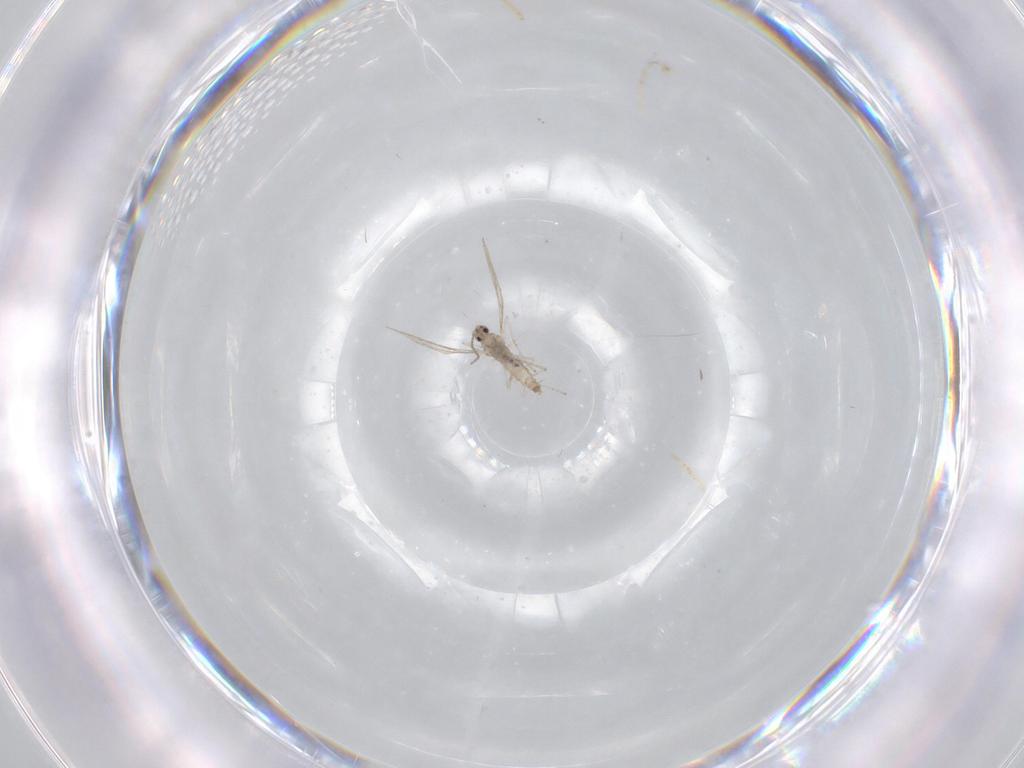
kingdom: Animalia
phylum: Arthropoda
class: Insecta
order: Diptera
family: Cecidomyiidae
